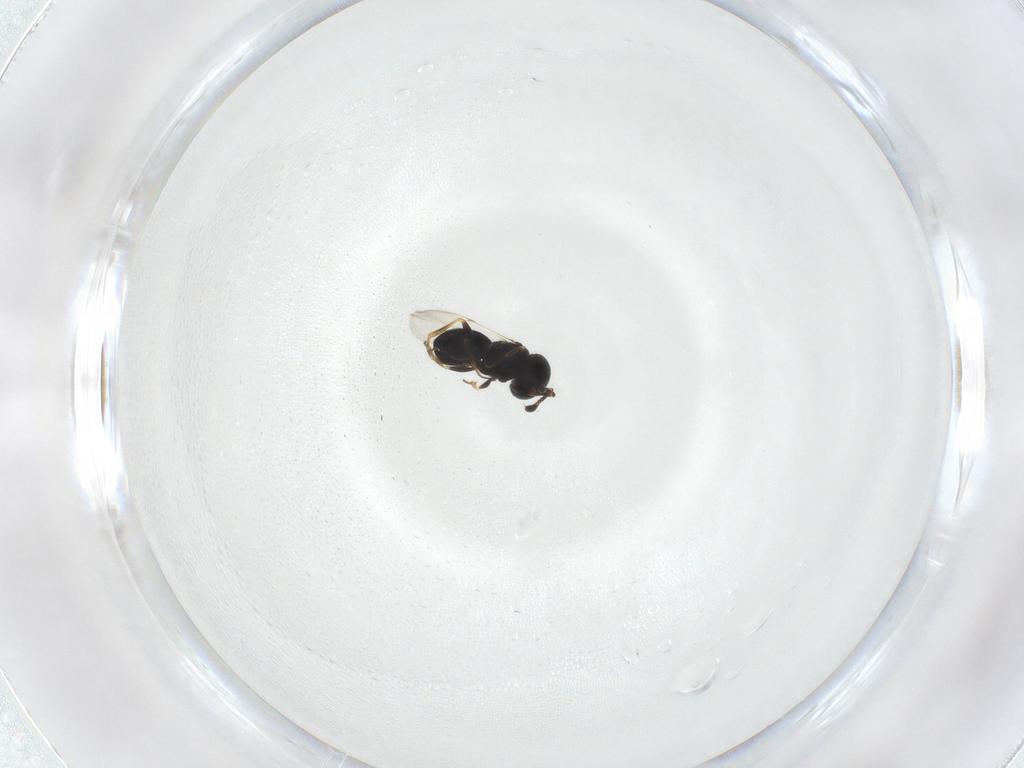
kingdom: Animalia
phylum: Arthropoda
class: Insecta
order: Hymenoptera
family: Scelionidae
